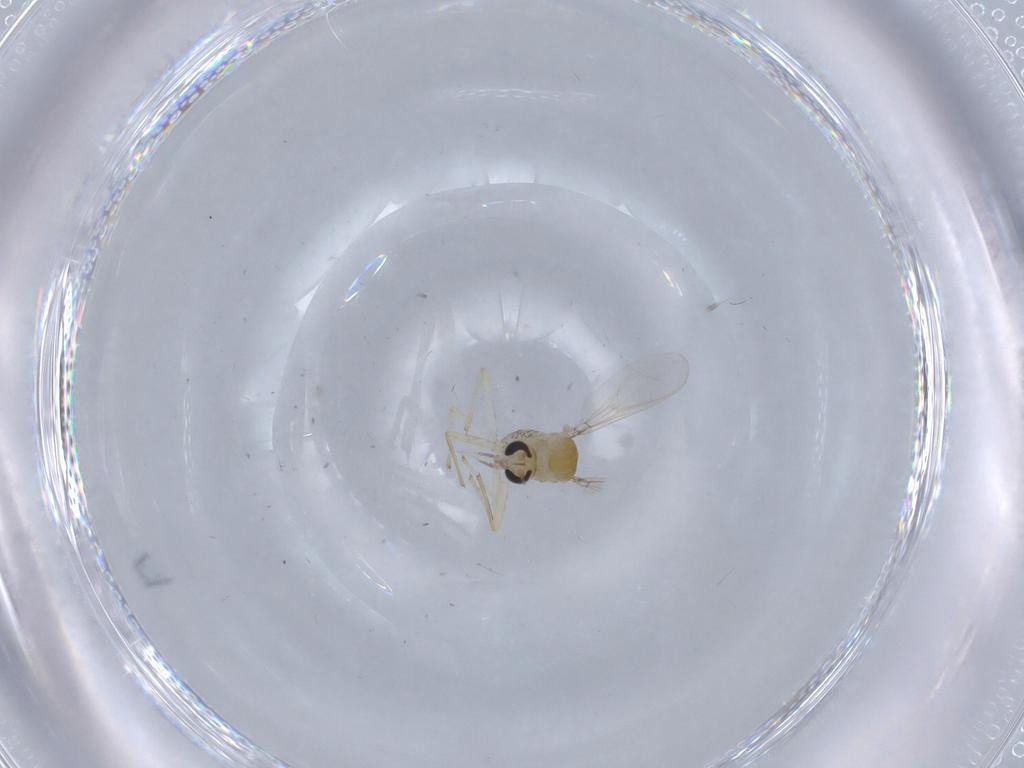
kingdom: Animalia
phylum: Arthropoda
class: Insecta
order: Diptera
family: Chironomidae
